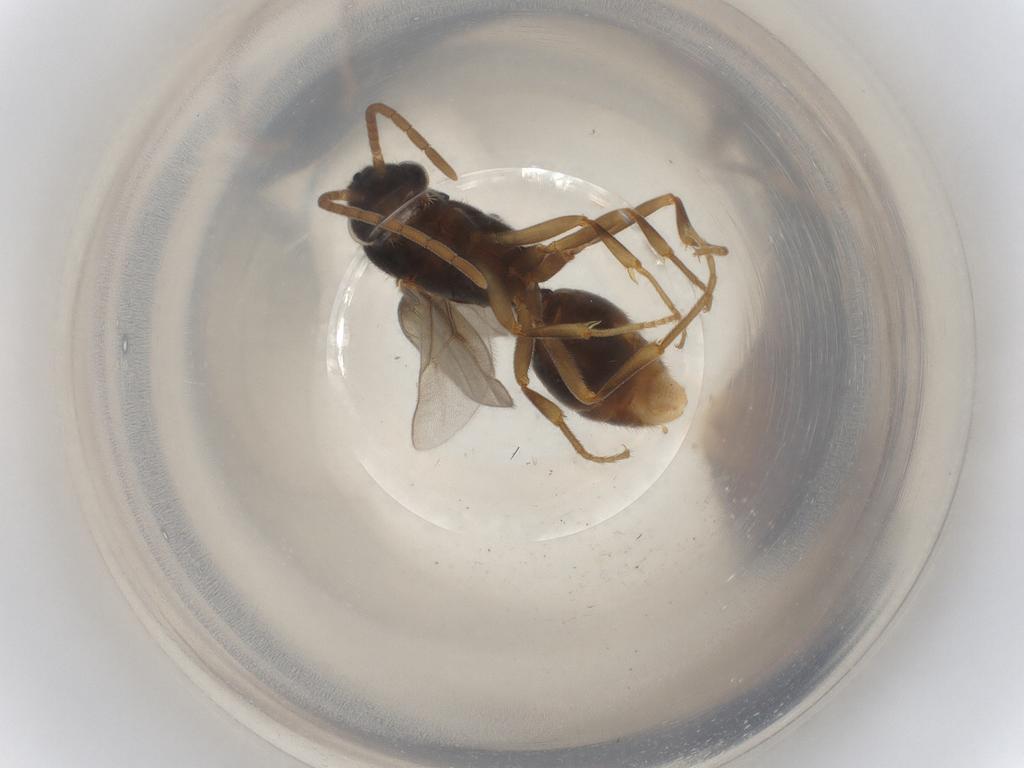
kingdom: Animalia
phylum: Arthropoda
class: Insecta
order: Hymenoptera
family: Formicidae
